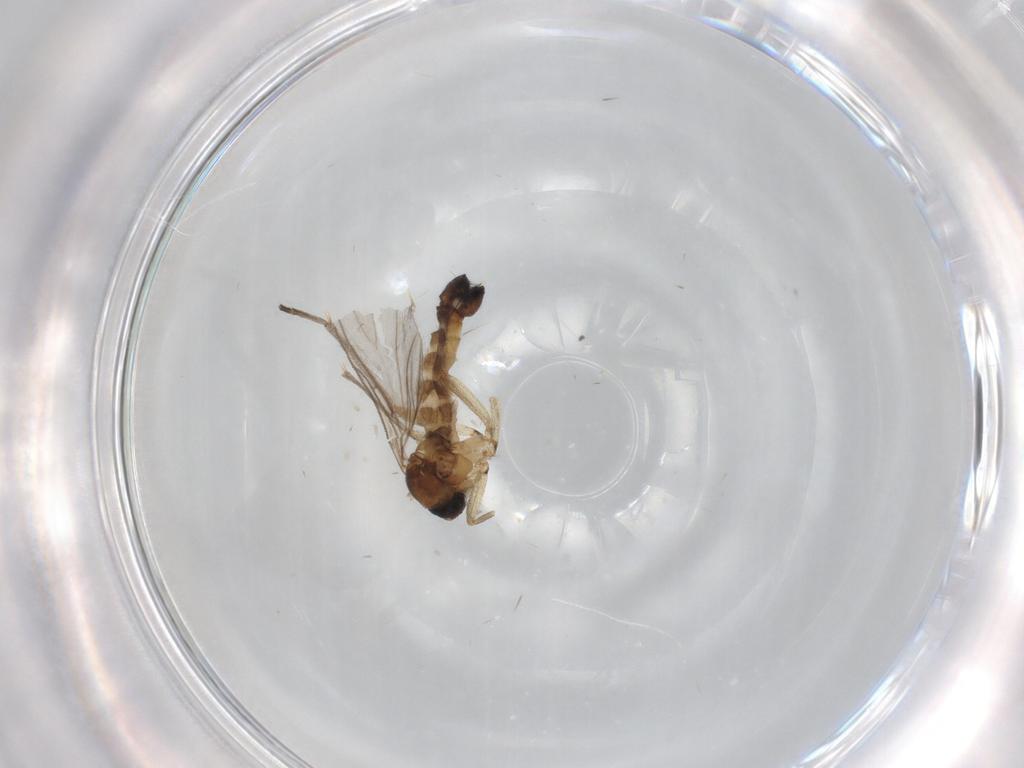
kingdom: Animalia
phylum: Arthropoda
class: Insecta
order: Diptera
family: Sciaridae
